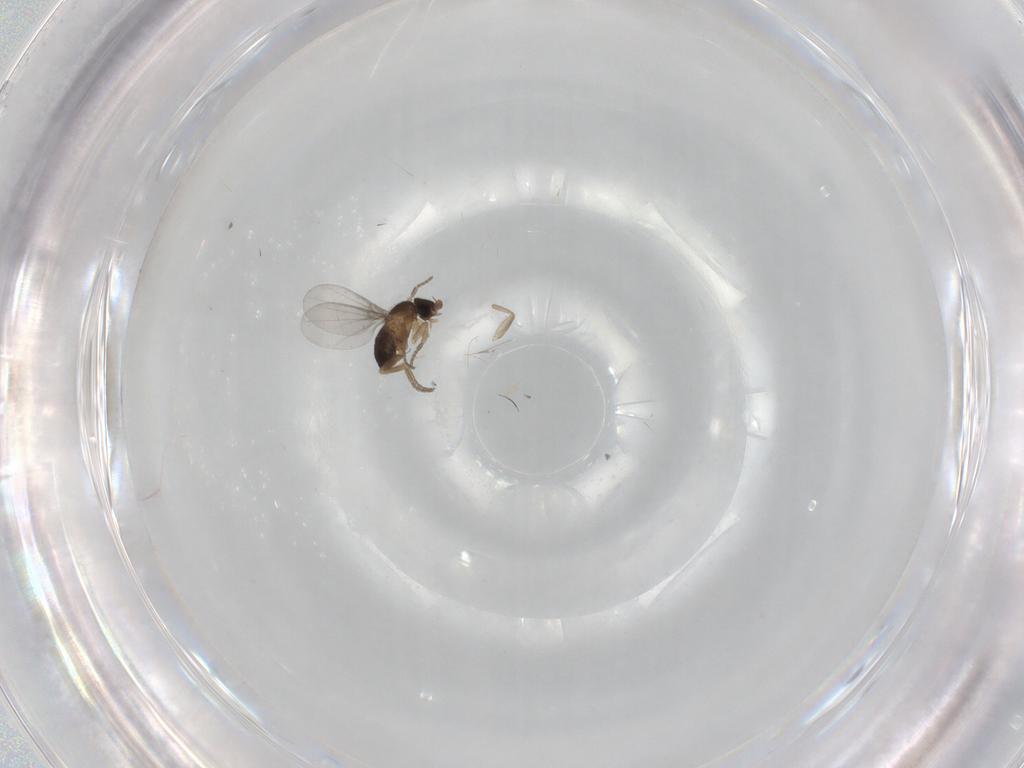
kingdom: Animalia
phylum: Arthropoda
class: Insecta
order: Diptera
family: Phoridae
